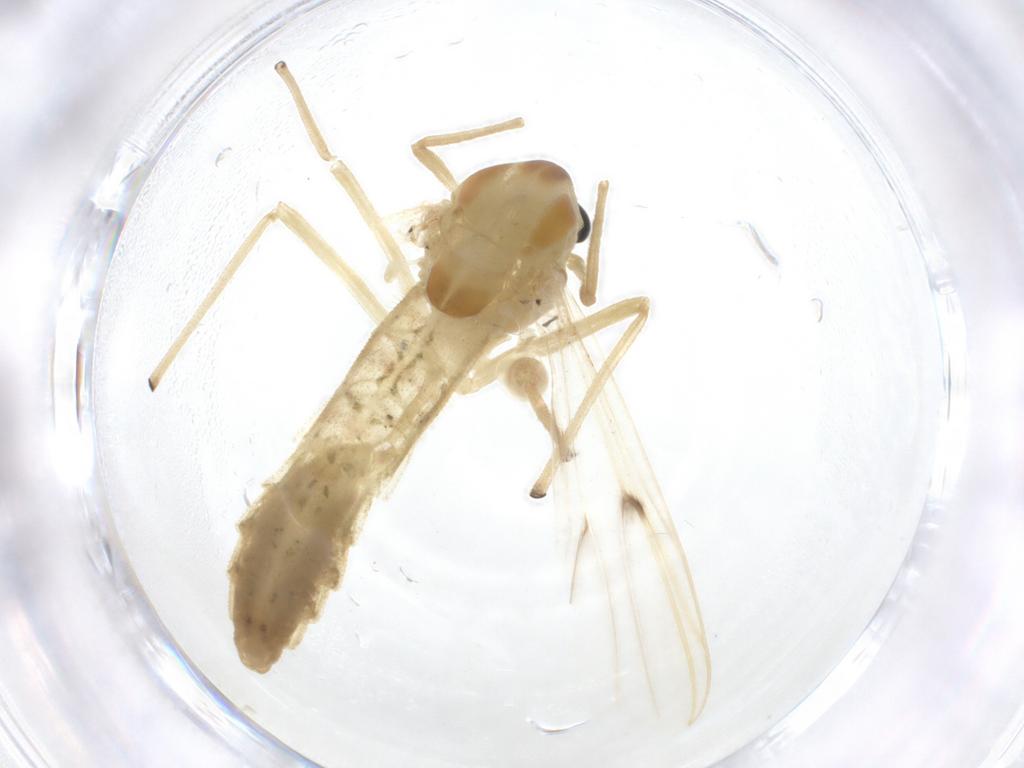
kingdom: Animalia
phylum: Arthropoda
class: Insecta
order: Diptera
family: Chironomidae
